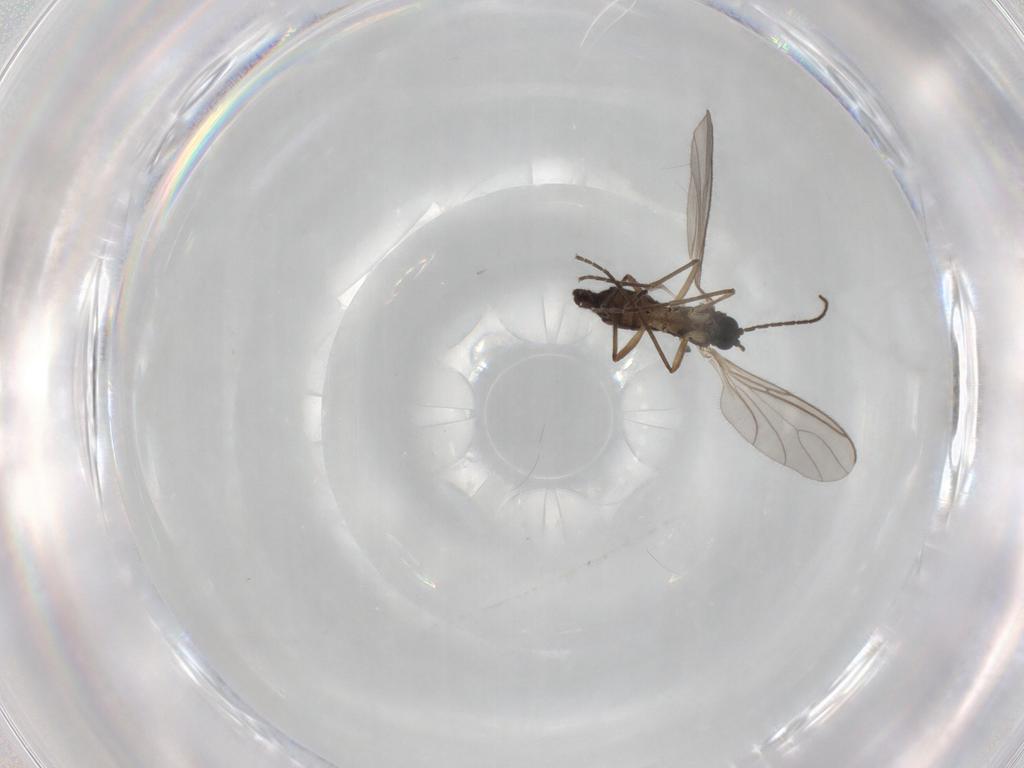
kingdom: Animalia
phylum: Arthropoda
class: Insecta
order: Diptera
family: Sciaridae
